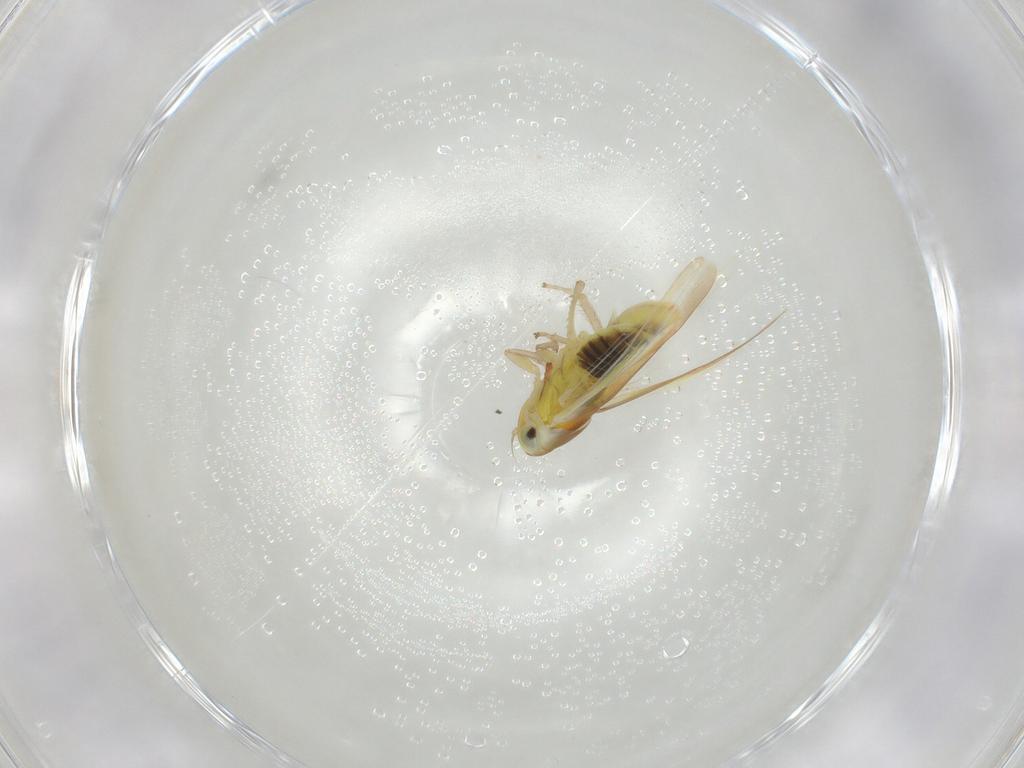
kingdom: Animalia
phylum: Arthropoda
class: Insecta
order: Hemiptera
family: Cicadellidae
